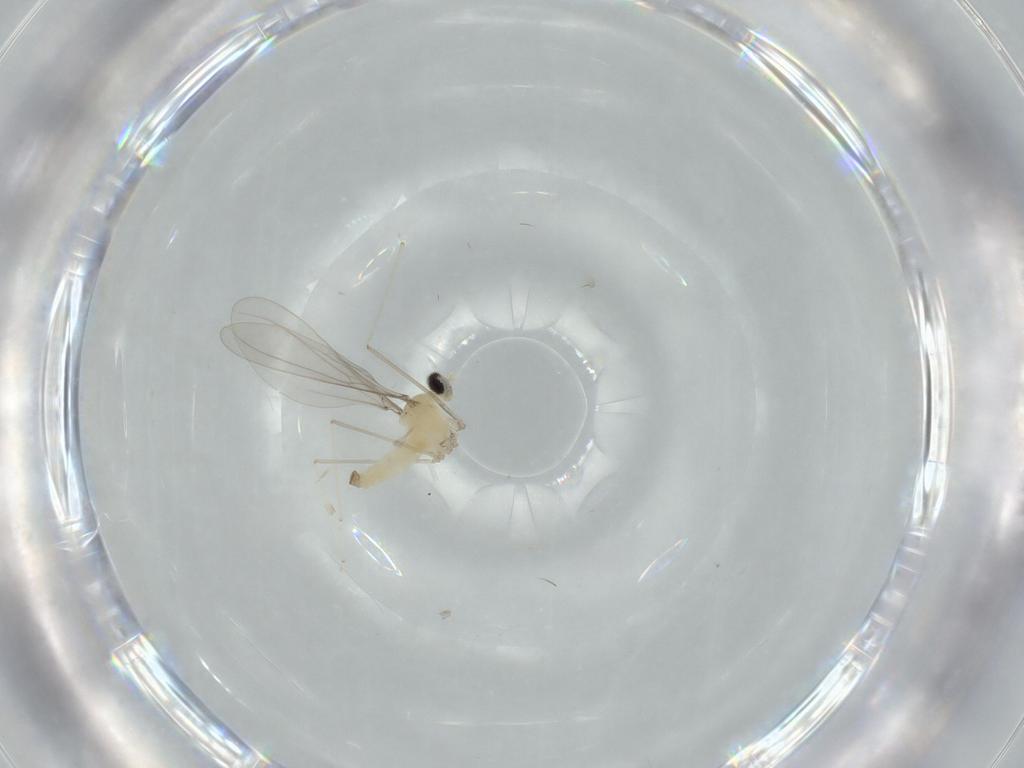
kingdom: Animalia
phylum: Arthropoda
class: Insecta
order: Diptera
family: Cecidomyiidae
